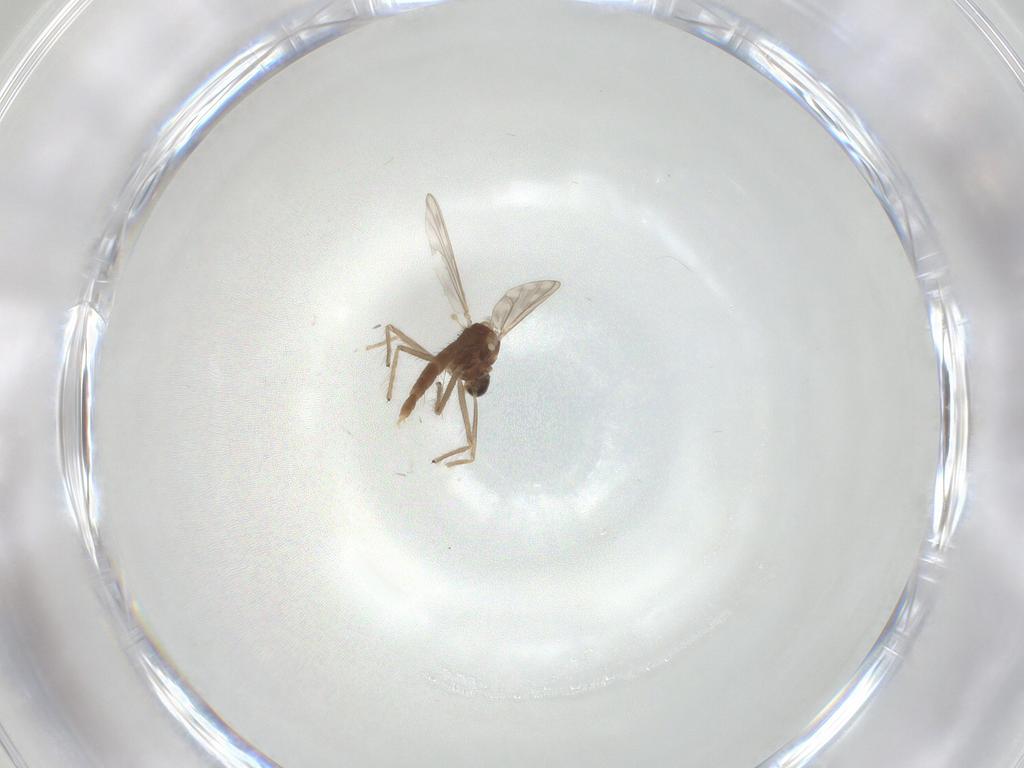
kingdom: Animalia
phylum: Arthropoda
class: Insecta
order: Diptera
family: Chironomidae
